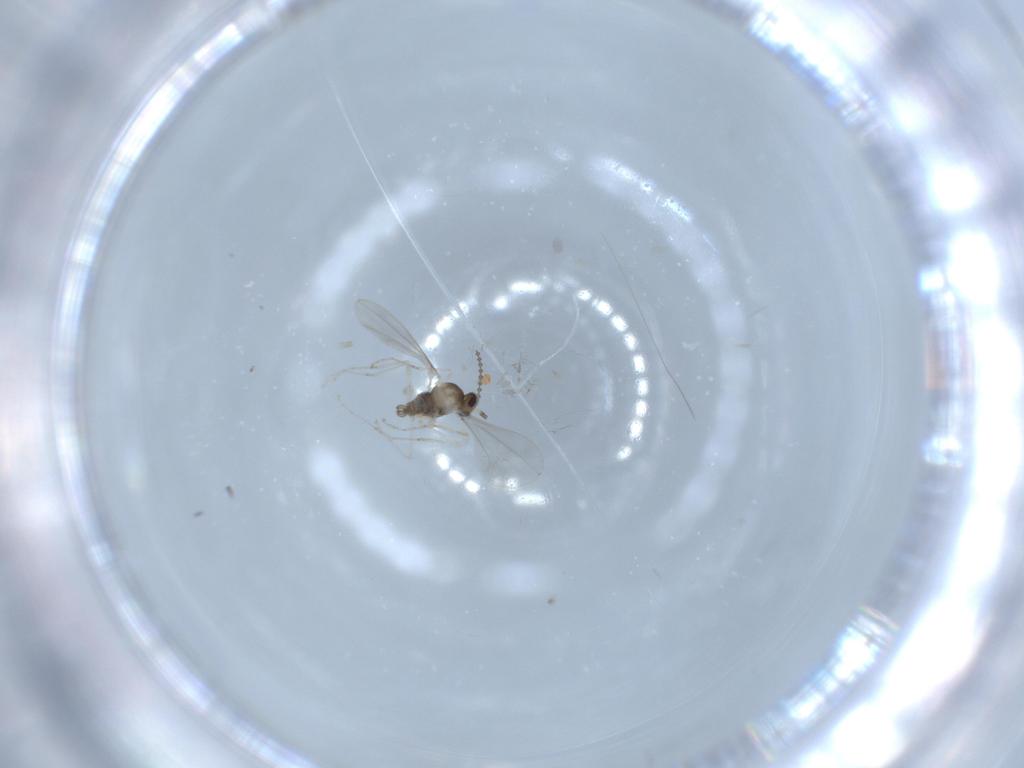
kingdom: Animalia
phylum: Arthropoda
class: Insecta
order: Diptera
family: Cecidomyiidae
